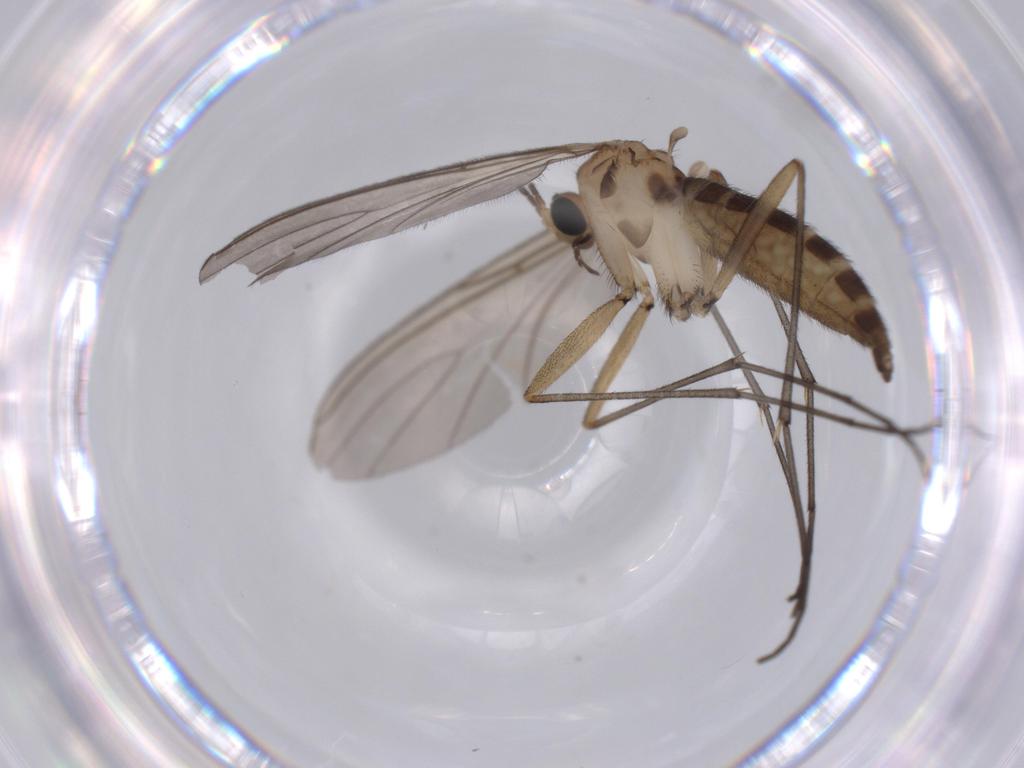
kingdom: Animalia
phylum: Arthropoda
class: Insecta
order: Diptera
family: Sciaridae
